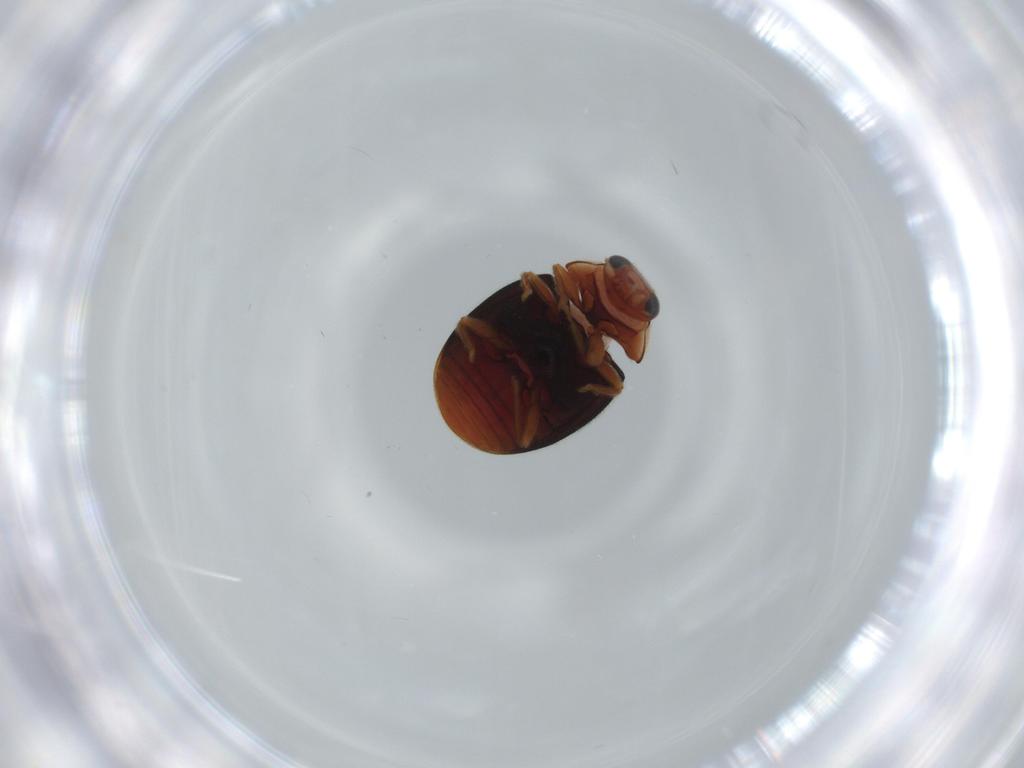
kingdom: Animalia
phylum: Arthropoda
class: Insecta
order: Coleoptera
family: Coccinellidae
